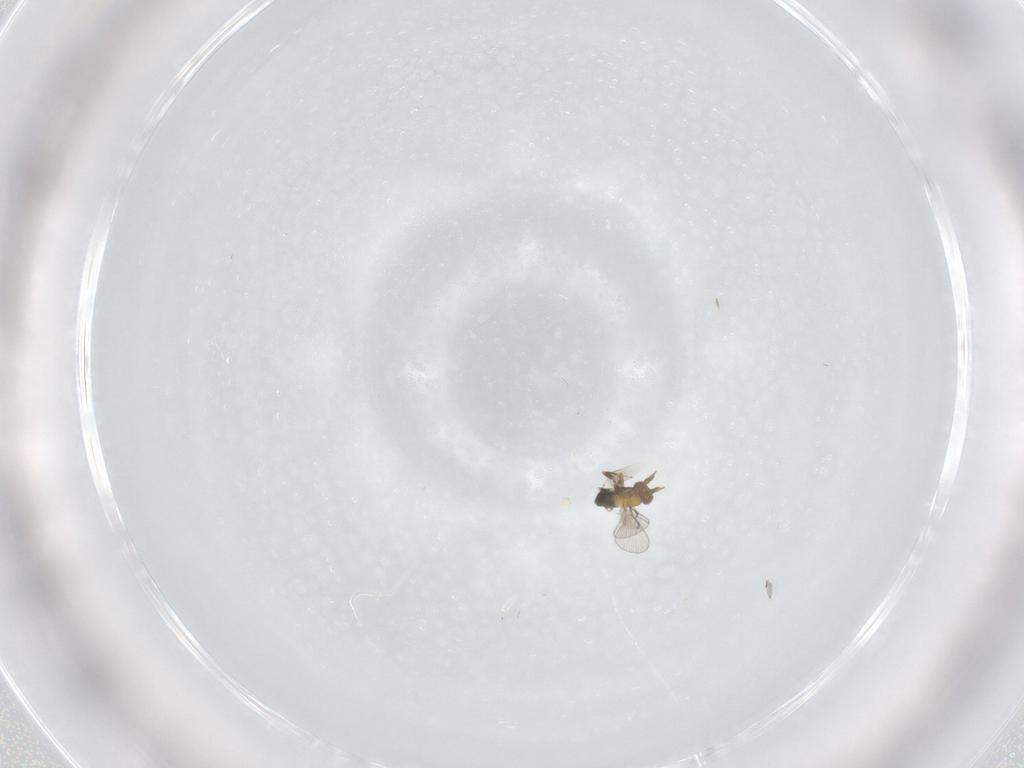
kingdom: Animalia
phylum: Arthropoda
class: Insecta
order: Hymenoptera
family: Trichogrammatidae
